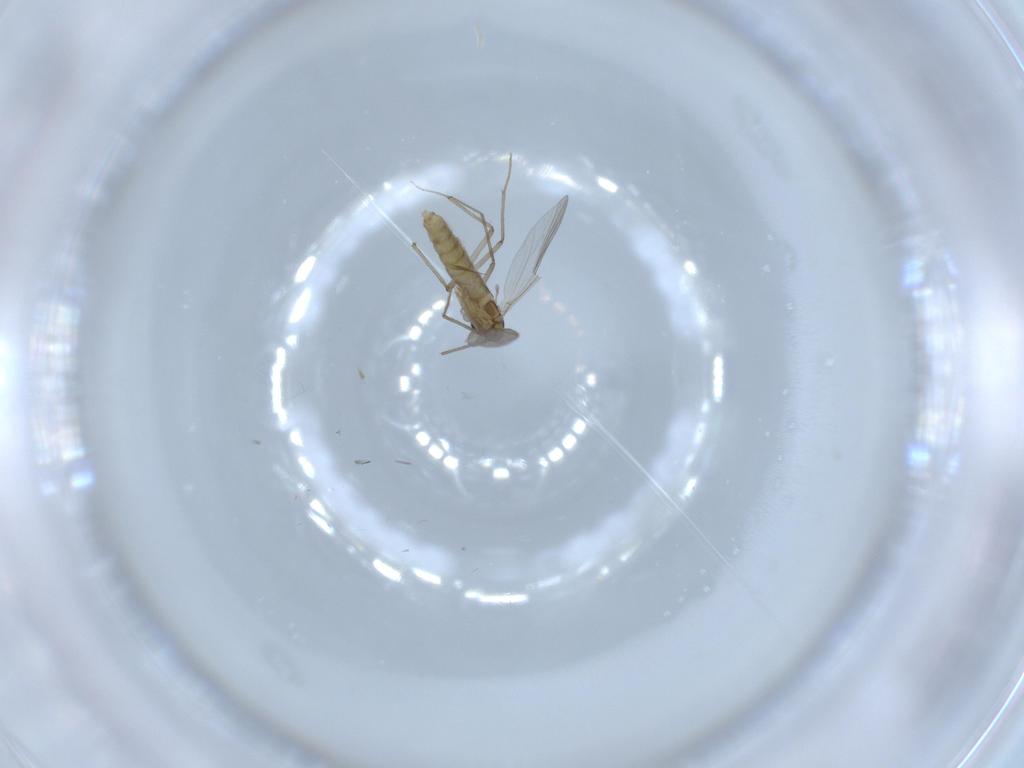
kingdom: Animalia
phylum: Arthropoda
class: Insecta
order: Diptera
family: Chironomidae
